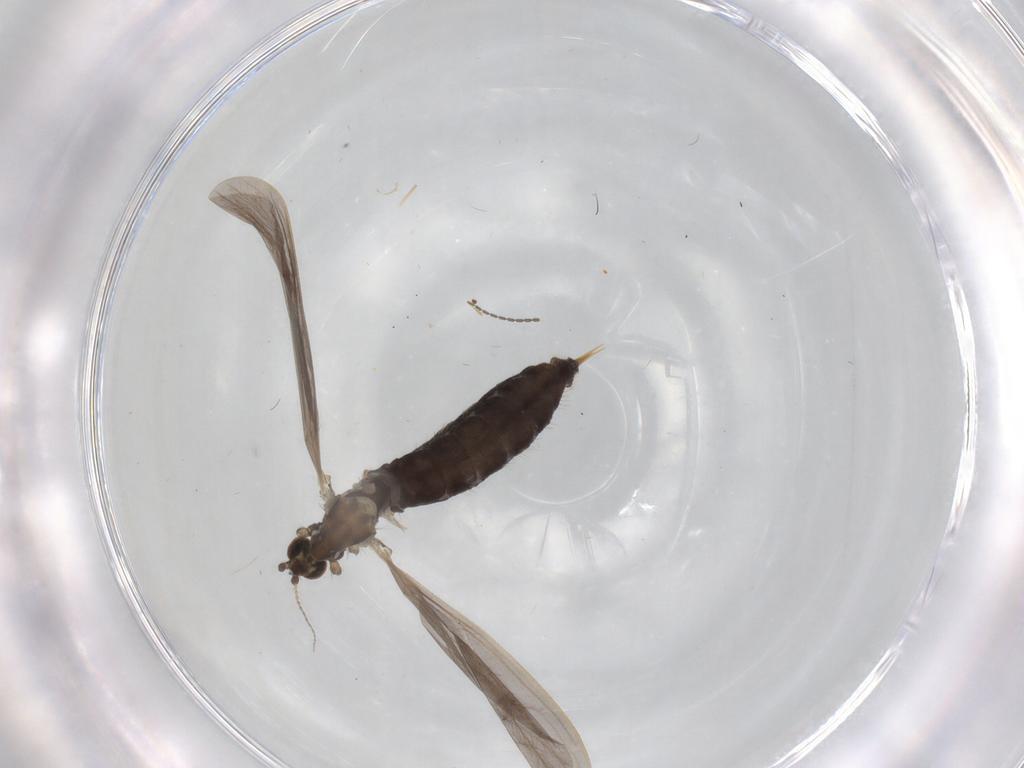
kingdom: Animalia
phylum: Arthropoda
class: Insecta
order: Diptera
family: Limoniidae
